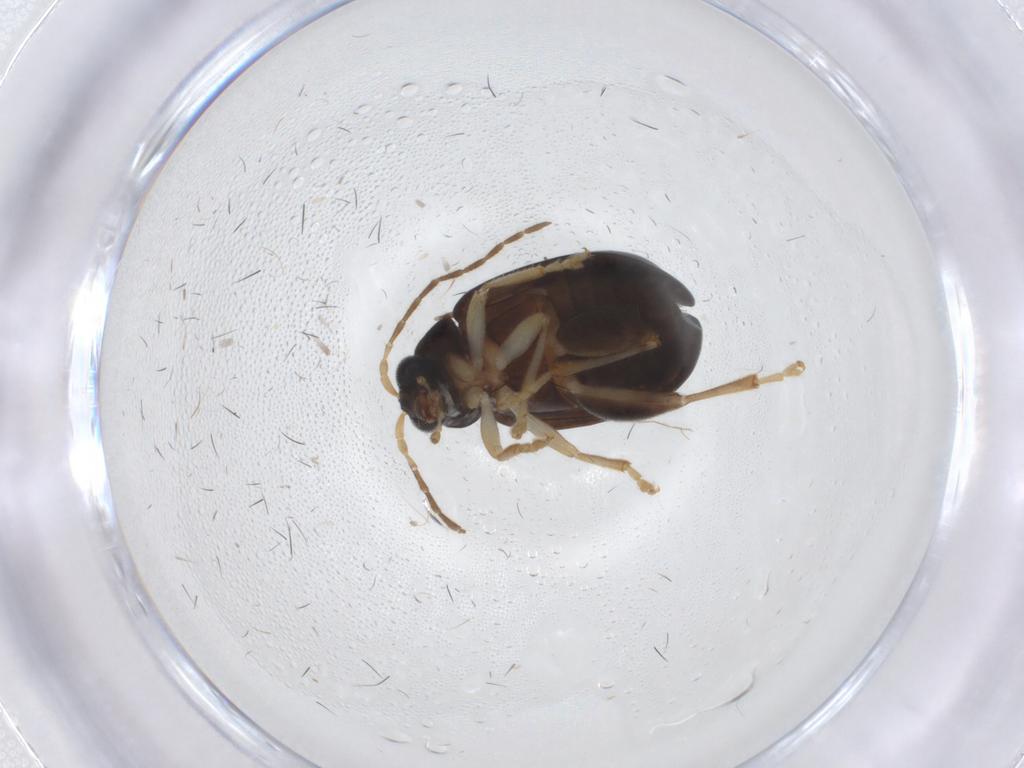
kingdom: Animalia
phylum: Arthropoda
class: Insecta
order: Coleoptera
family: Chrysomelidae
